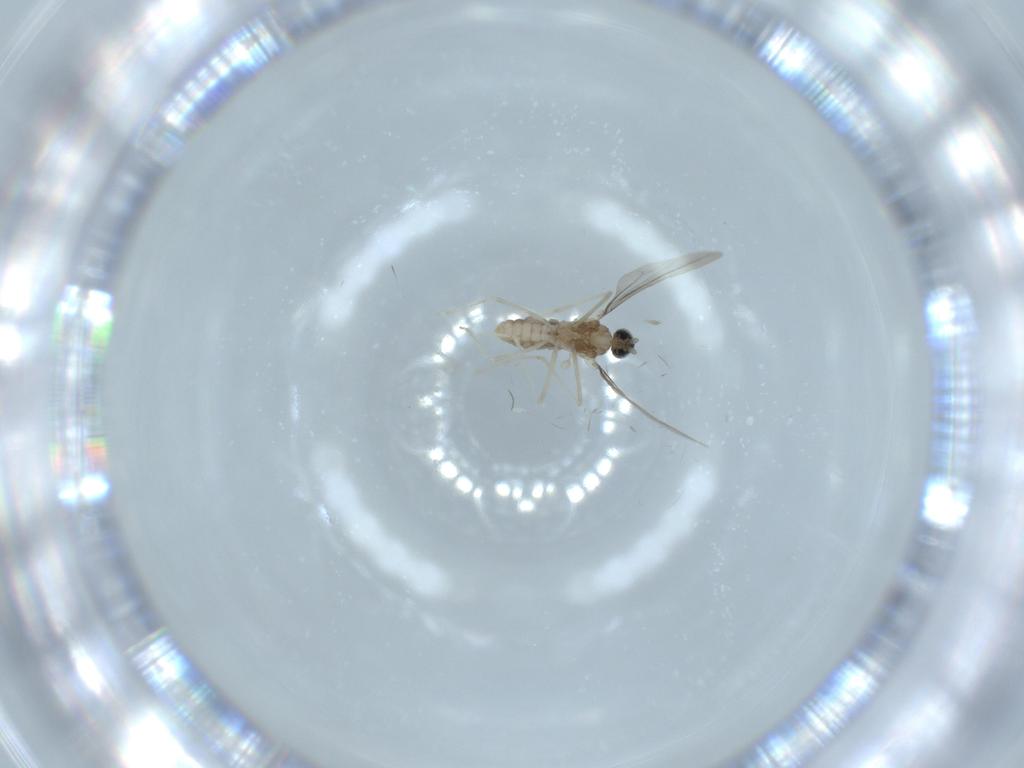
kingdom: Animalia
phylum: Arthropoda
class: Insecta
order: Diptera
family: Cecidomyiidae
